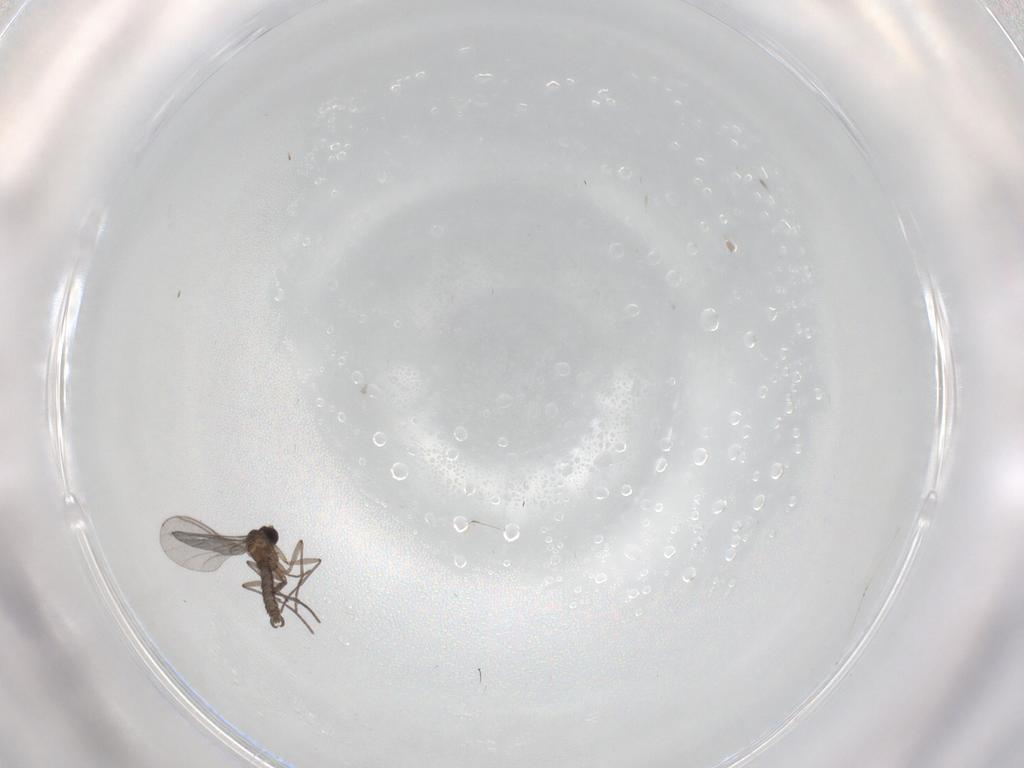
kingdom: Animalia
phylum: Arthropoda
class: Insecta
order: Diptera
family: Sciaridae
